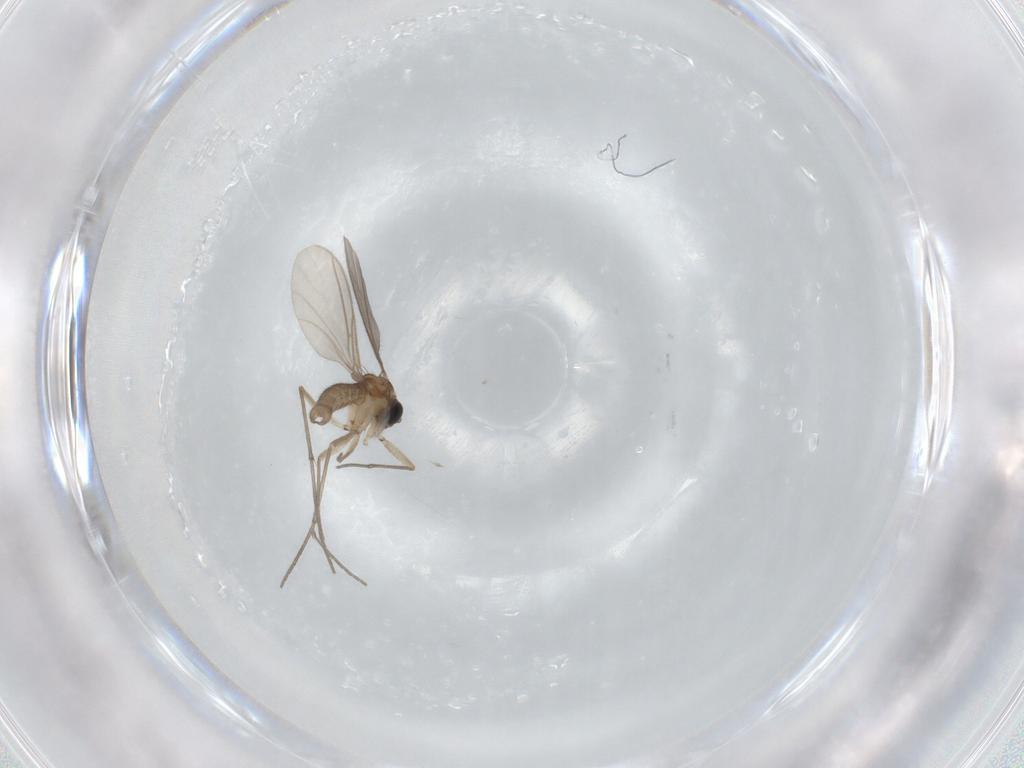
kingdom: Animalia
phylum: Arthropoda
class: Insecta
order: Diptera
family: Sciaridae
